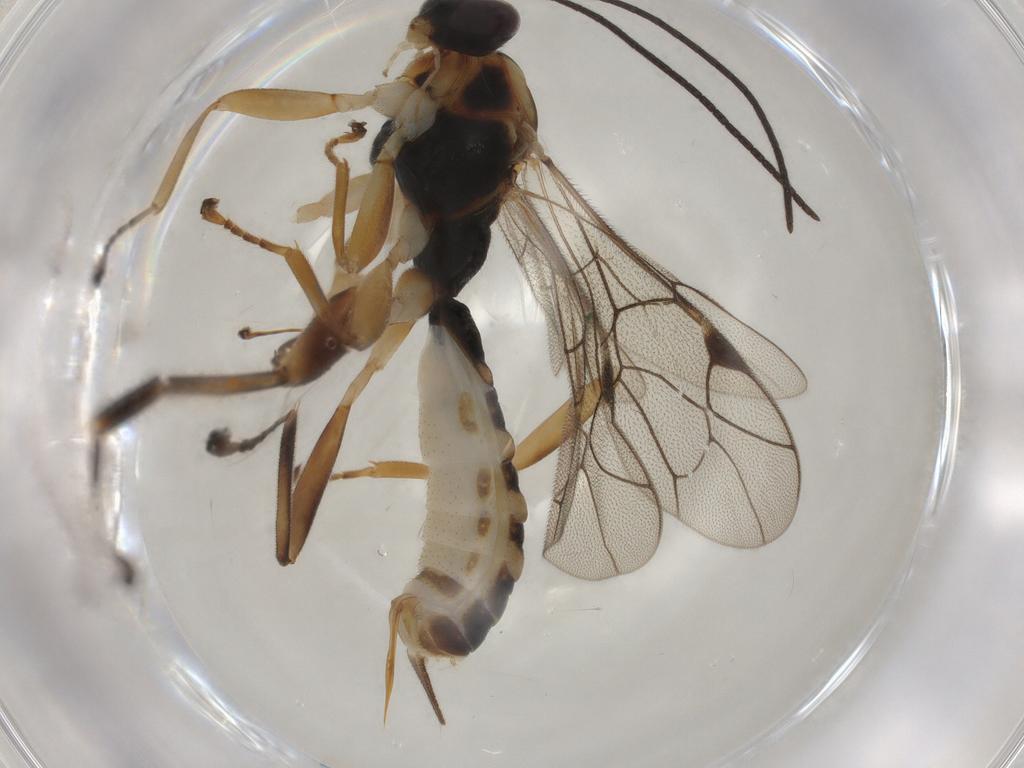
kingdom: Animalia
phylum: Arthropoda
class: Insecta
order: Hymenoptera
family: Ichneumonidae
